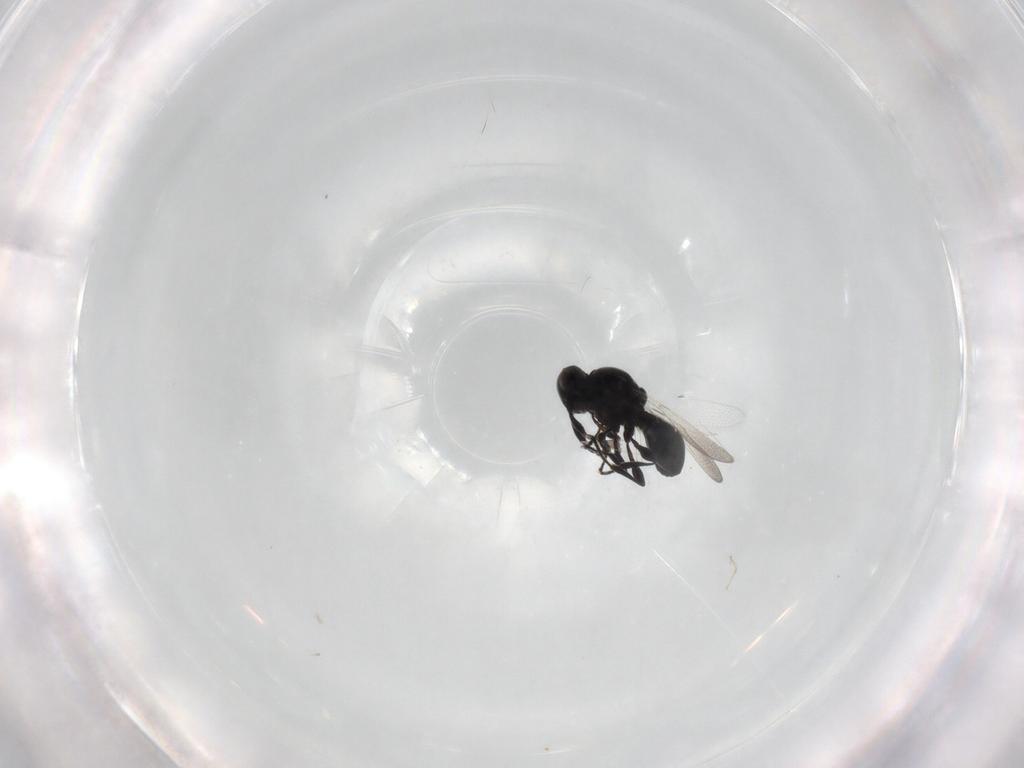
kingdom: Animalia
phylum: Arthropoda
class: Insecta
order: Hymenoptera
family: Platygastridae
